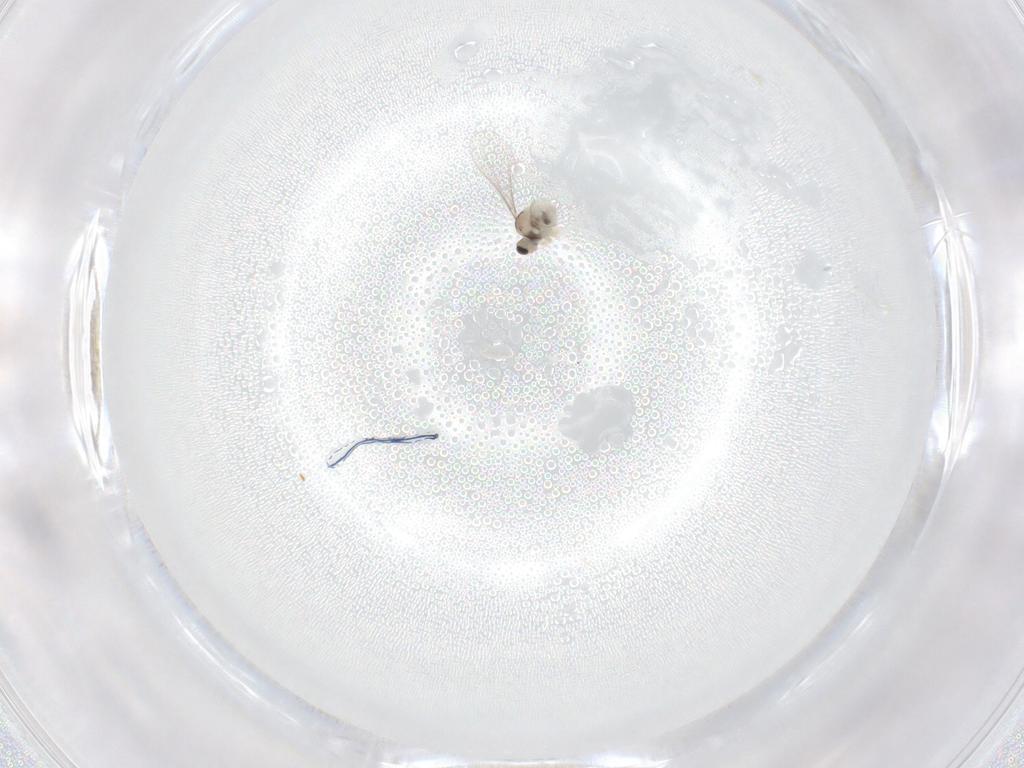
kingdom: Animalia
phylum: Arthropoda
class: Insecta
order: Diptera
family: Cecidomyiidae
